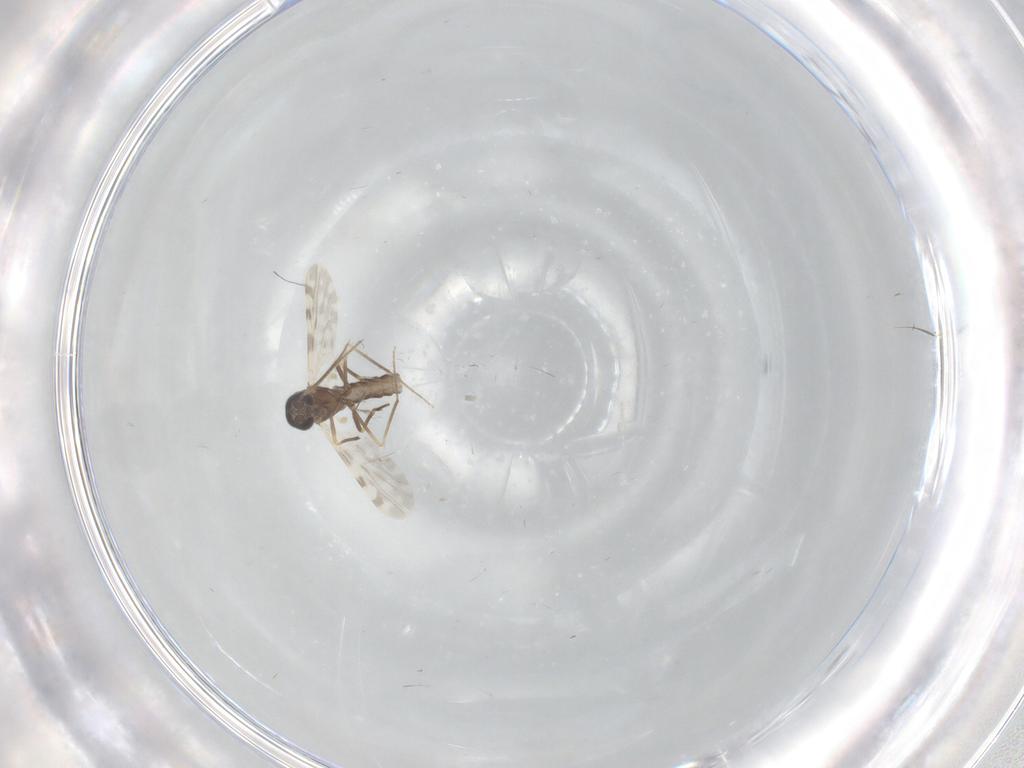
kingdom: Animalia
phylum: Arthropoda
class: Insecta
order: Diptera
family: Ceratopogonidae
